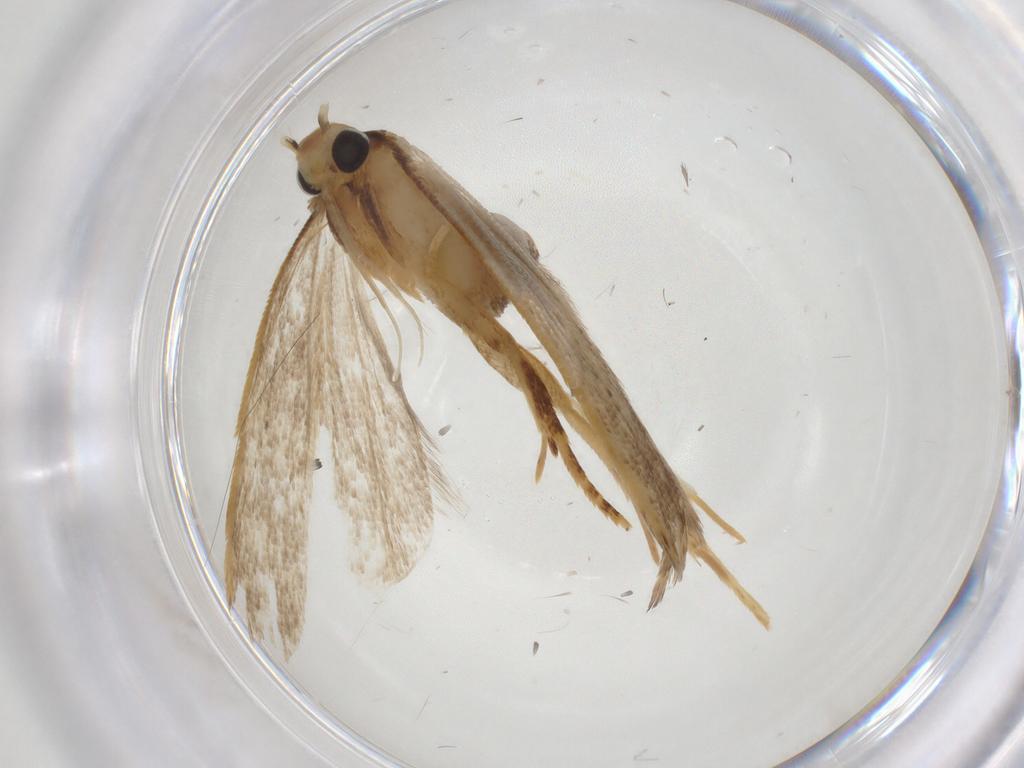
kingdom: Animalia
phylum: Arthropoda
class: Insecta
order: Lepidoptera
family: Gelechiidae
